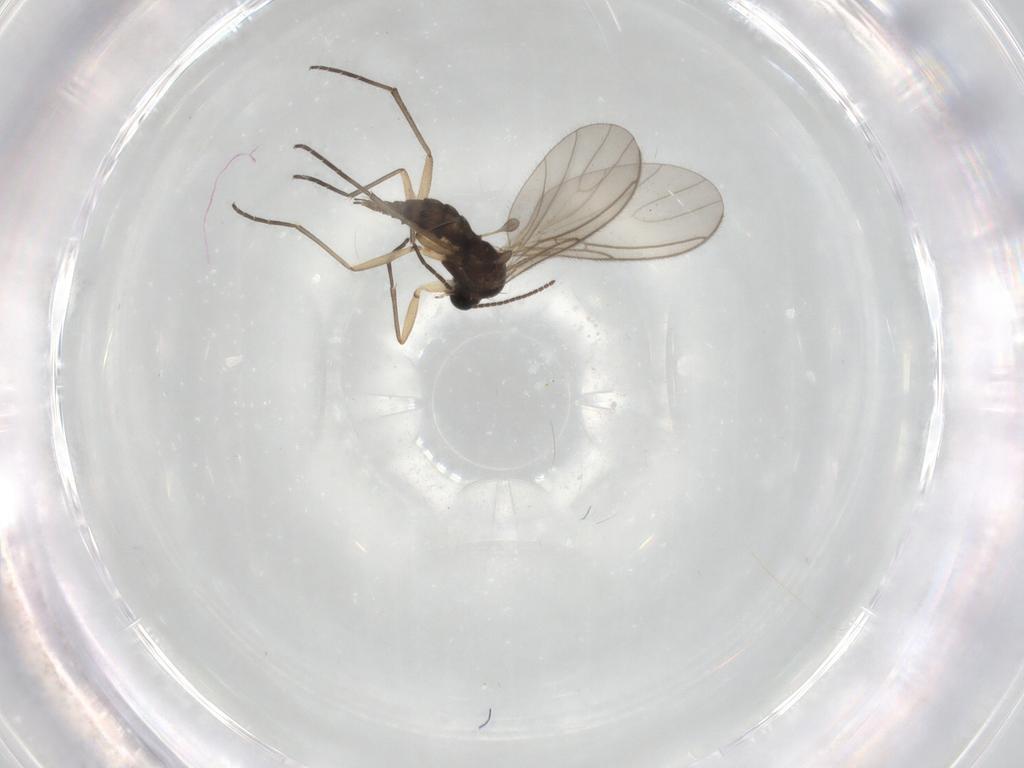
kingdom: Animalia
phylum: Arthropoda
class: Insecta
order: Diptera
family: Sciaridae
